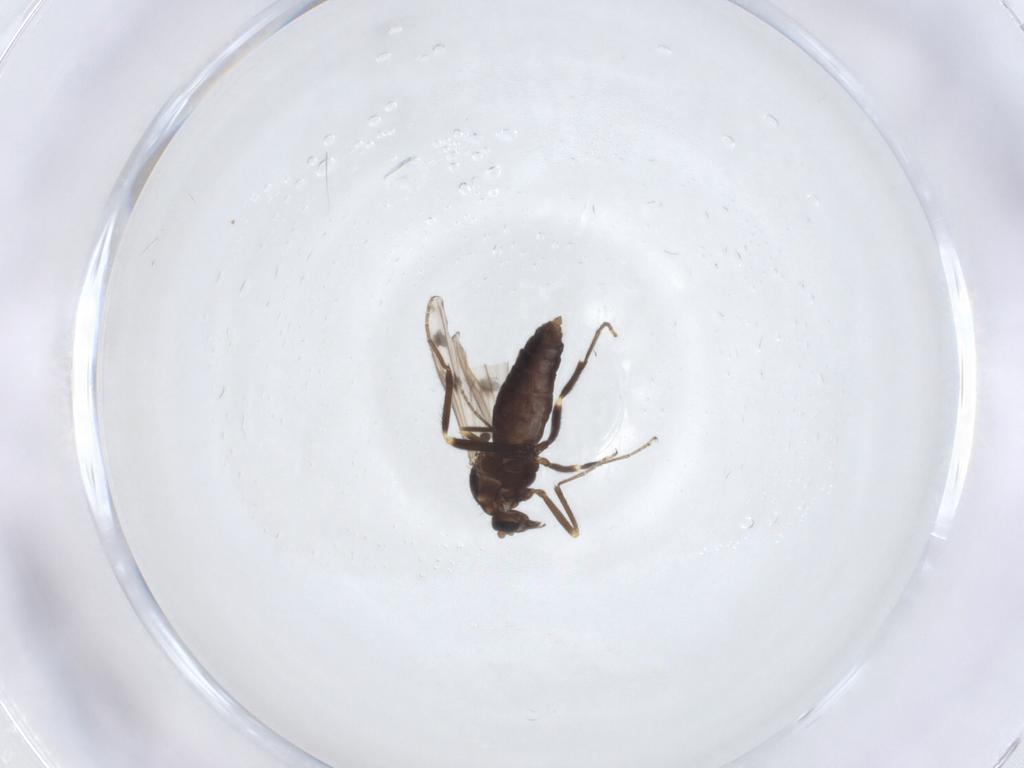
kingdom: Animalia
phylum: Arthropoda
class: Insecta
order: Diptera
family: Ceratopogonidae
